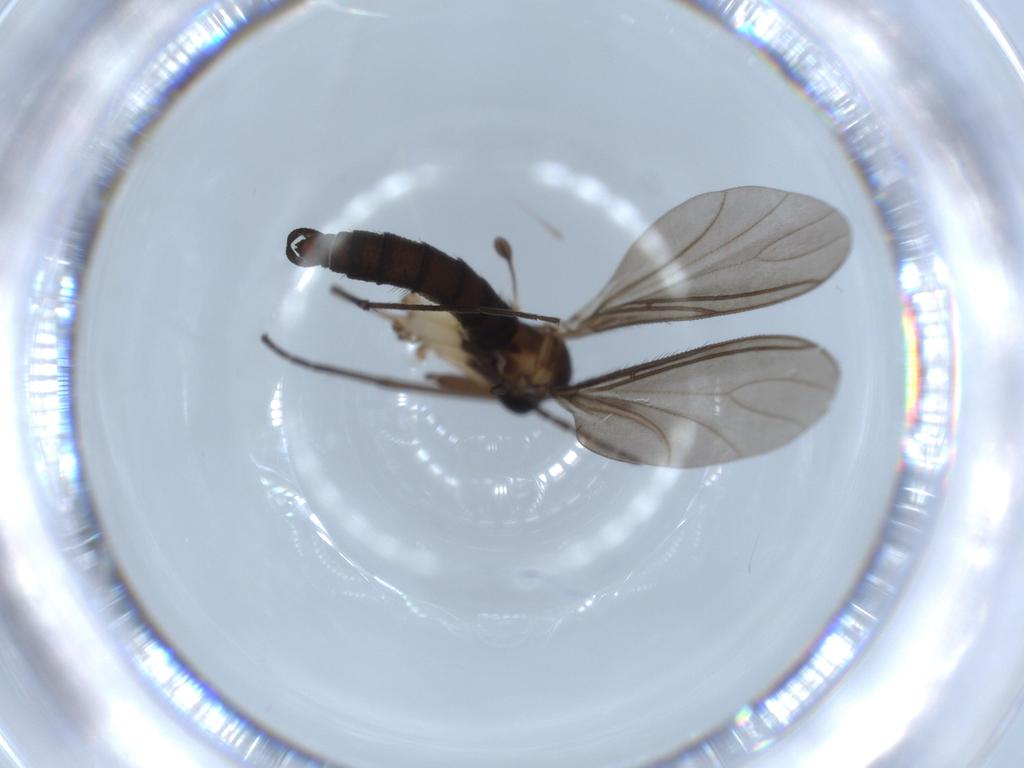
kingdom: Animalia
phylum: Arthropoda
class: Insecta
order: Diptera
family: Sciaridae
